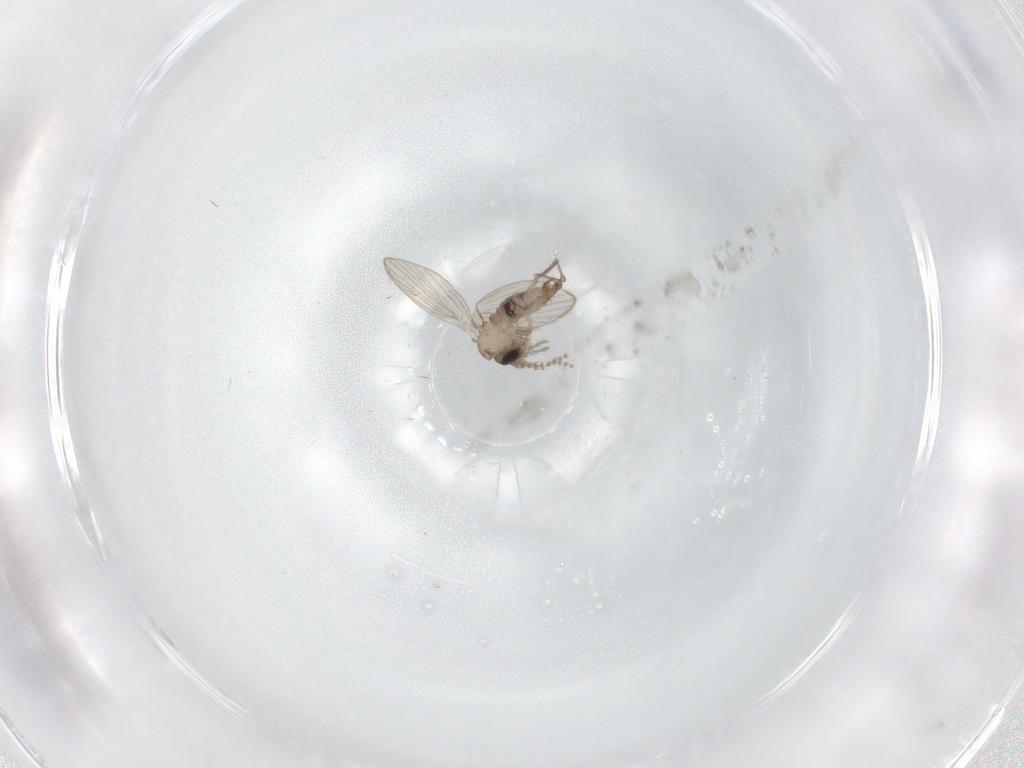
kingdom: Animalia
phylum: Arthropoda
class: Insecta
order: Diptera
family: Psychodidae
